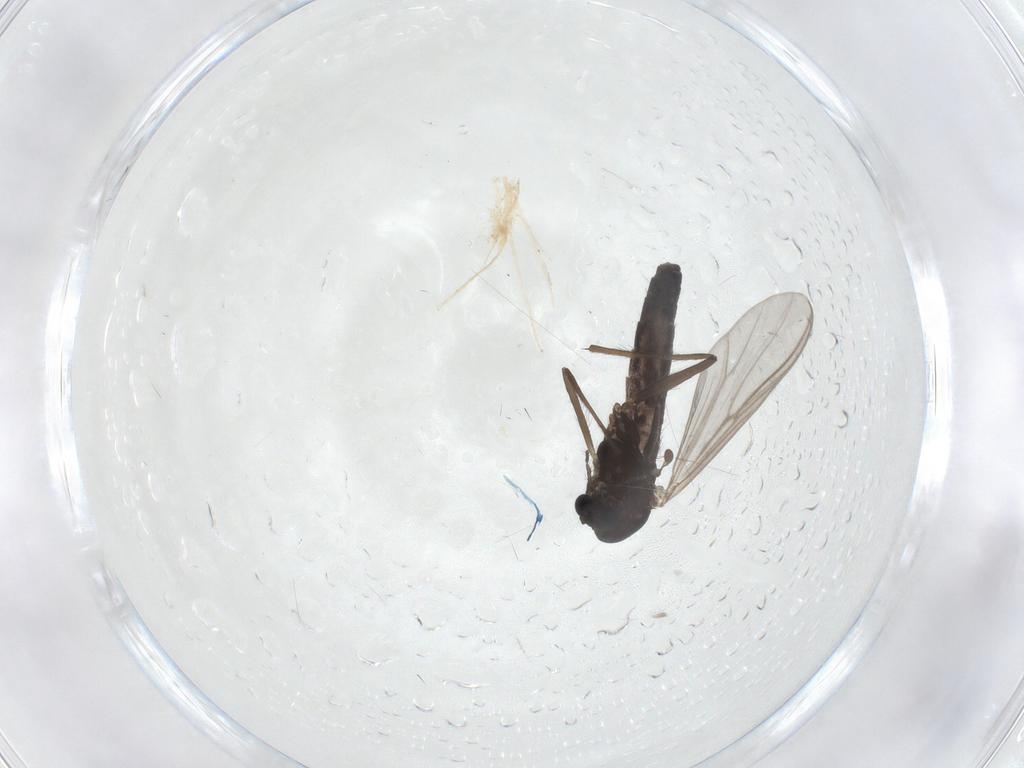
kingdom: Animalia
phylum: Arthropoda
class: Insecta
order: Diptera
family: Chironomidae
